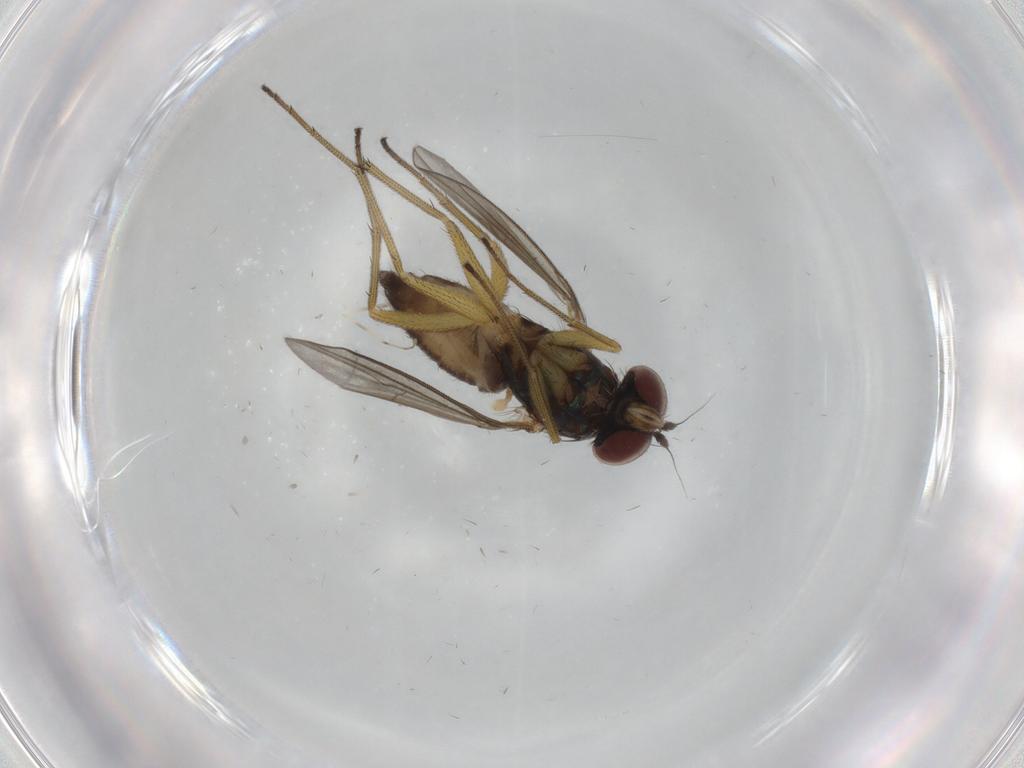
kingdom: Animalia
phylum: Arthropoda
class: Insecta
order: Diptera
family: Dolichopodidae
